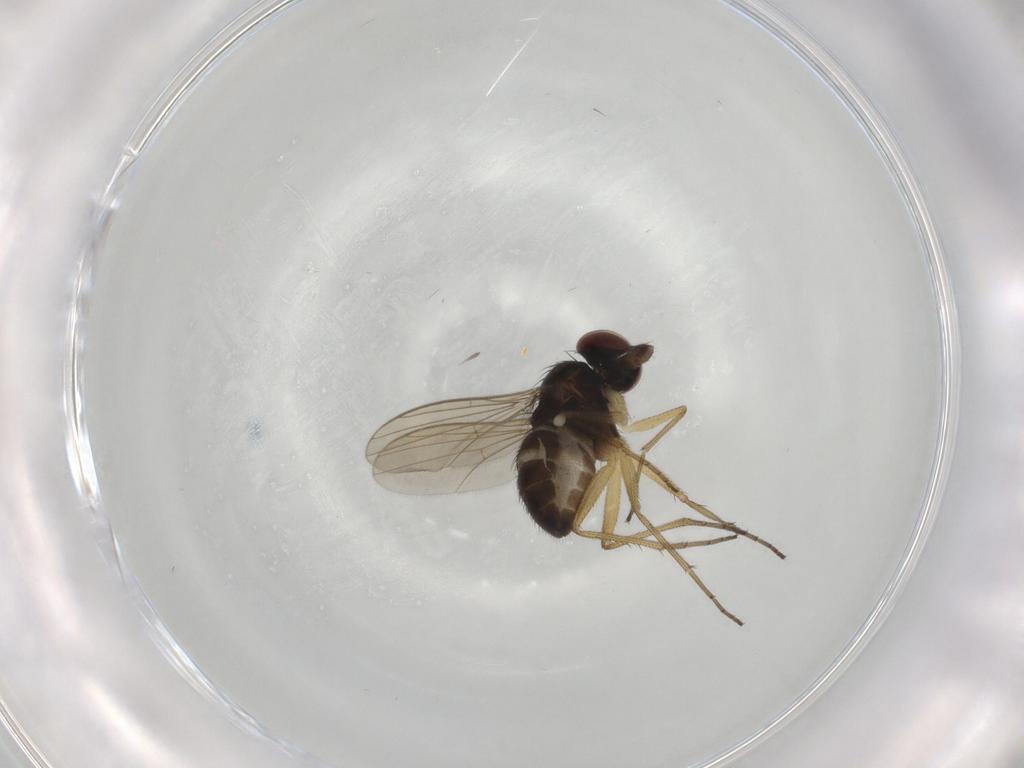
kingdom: Animalia
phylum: Arthropoda
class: Insecta
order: Diptera
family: Dolichopodidae
